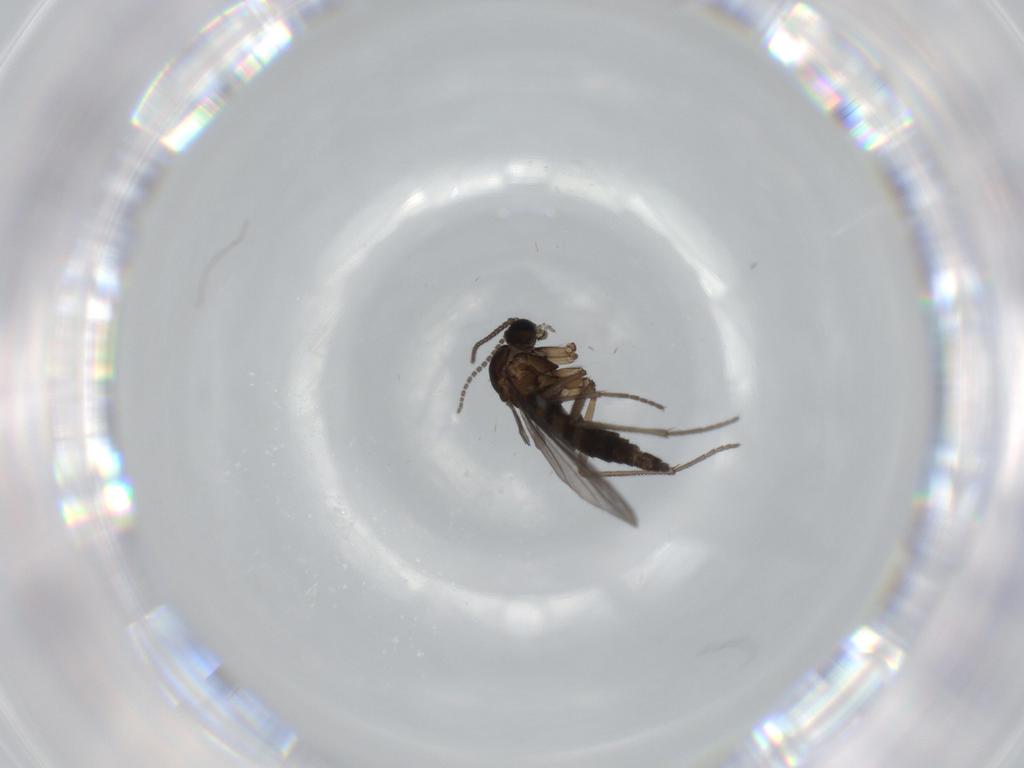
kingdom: Animalia
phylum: Arthropoda
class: Insecta
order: Diptera
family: Sciaridae
